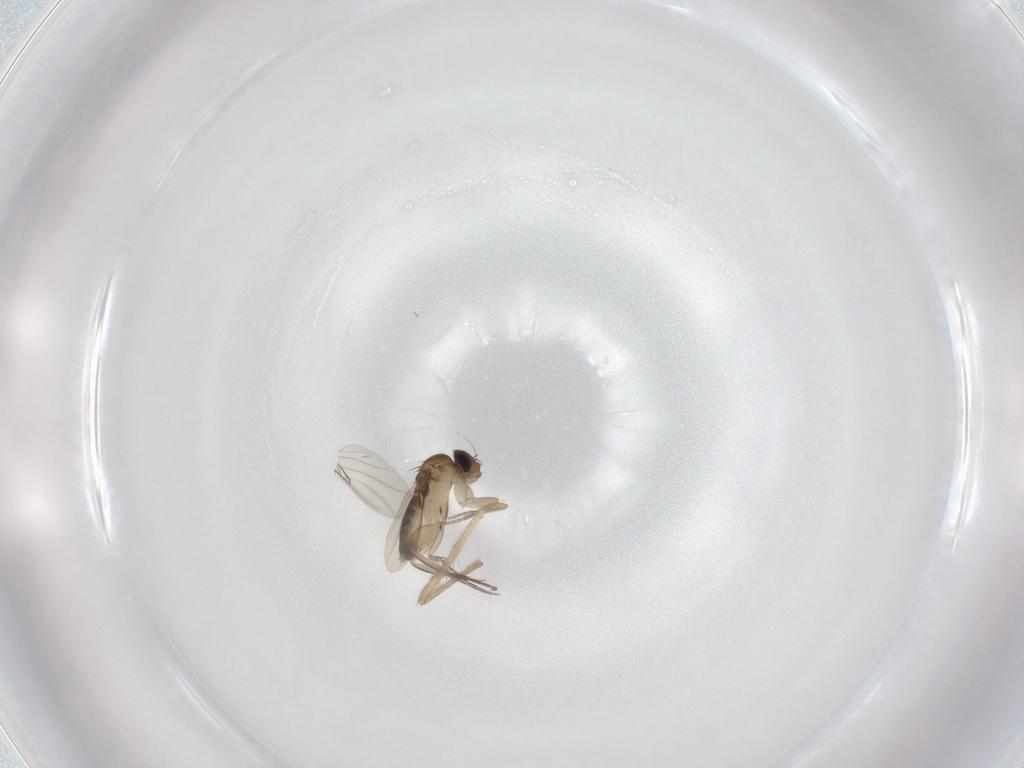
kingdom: Animalia
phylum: Arthropoda
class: Insecta
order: Diptera
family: Phoridae
